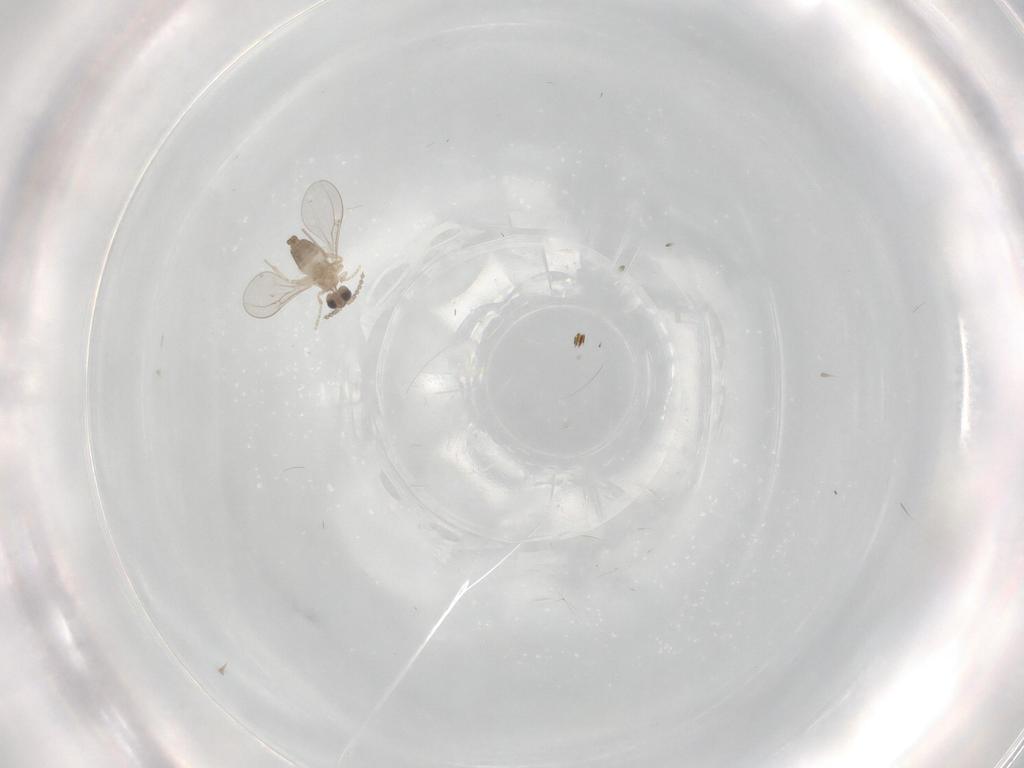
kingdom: Animalia
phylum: Arthropoda
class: Insecta
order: Diptera
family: Cecidomyiidae
